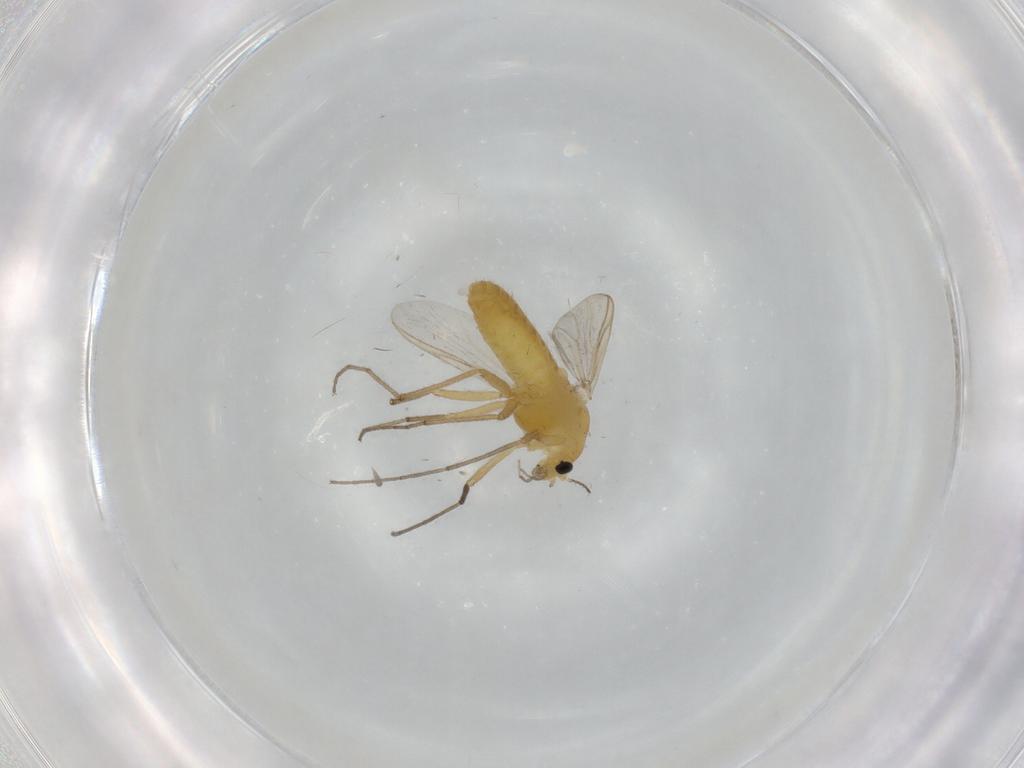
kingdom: Animalia
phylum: Arthropoda
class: Insecta
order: Diptera
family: Chironomidae
